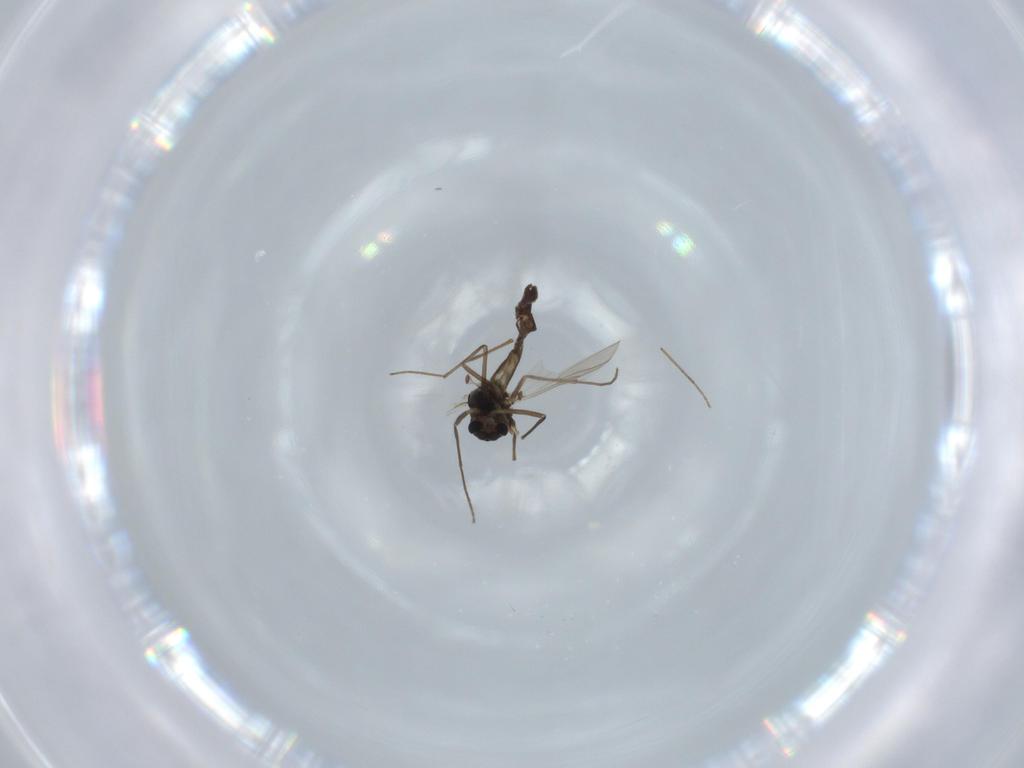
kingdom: Animalia
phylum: Arthropoda
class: Insecta
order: Diptera
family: Chironomidae
